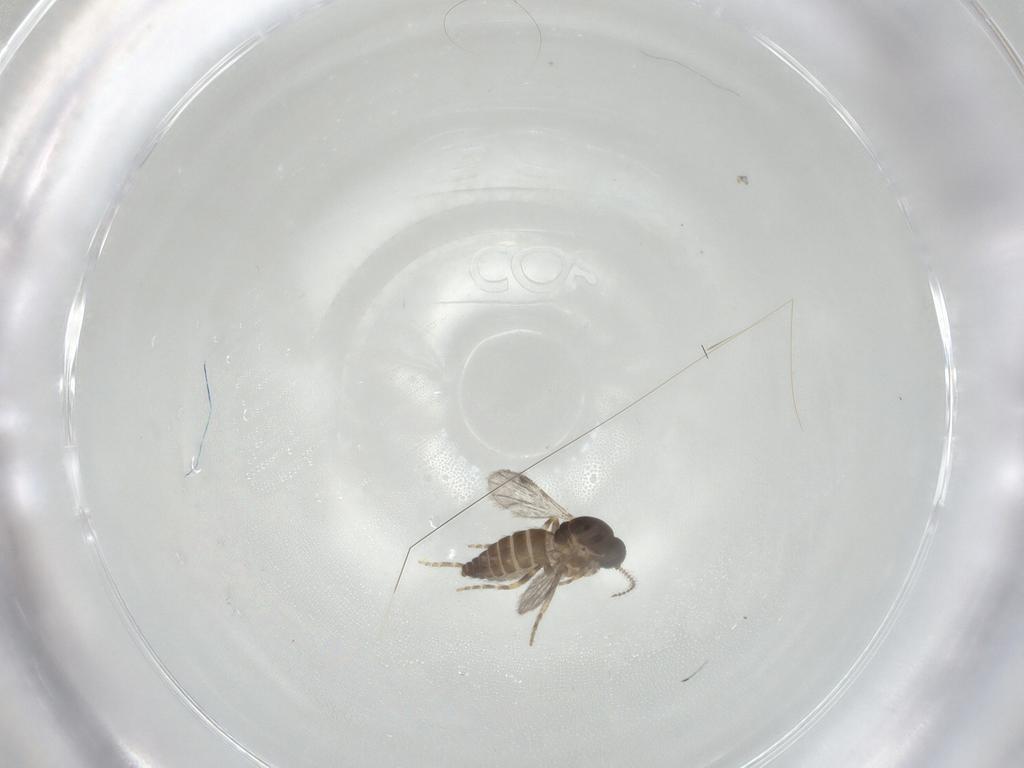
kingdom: Animalia
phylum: Arthropoda
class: Insecta
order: Diptera
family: Ceratopogonidae
